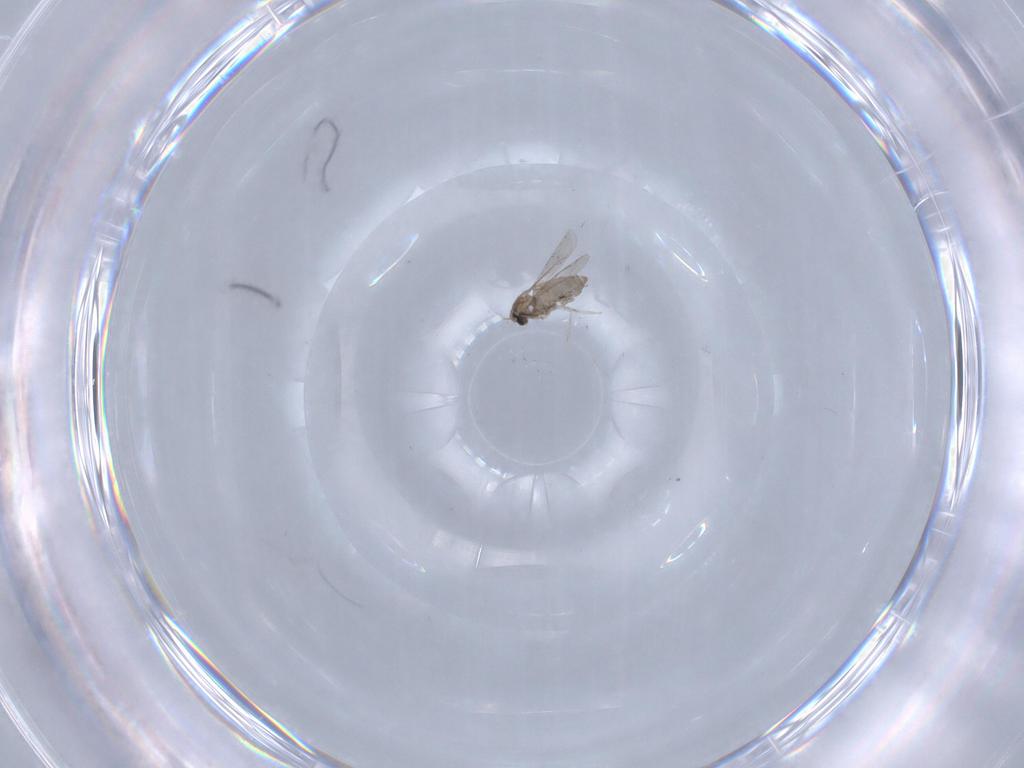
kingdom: Animalia
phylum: Arthropoda
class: Insecta
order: Diptera
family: Cecidomyiidae
